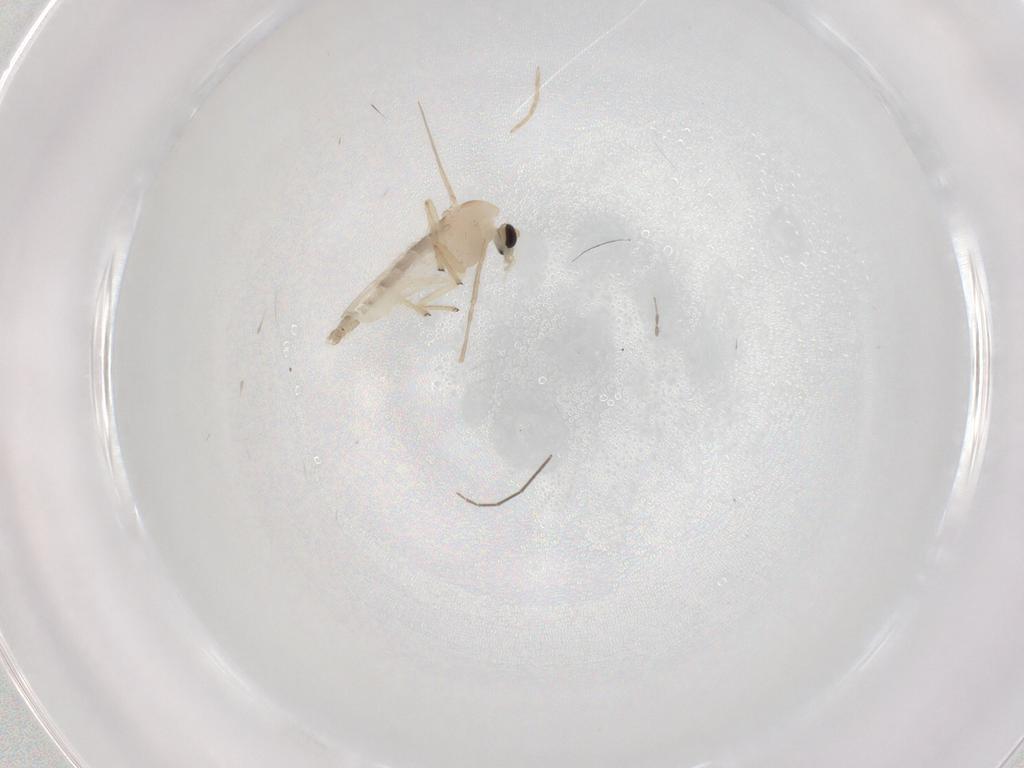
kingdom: Animalia
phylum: Arthropoda
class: Insecta
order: Diptera
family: Chironomidae
